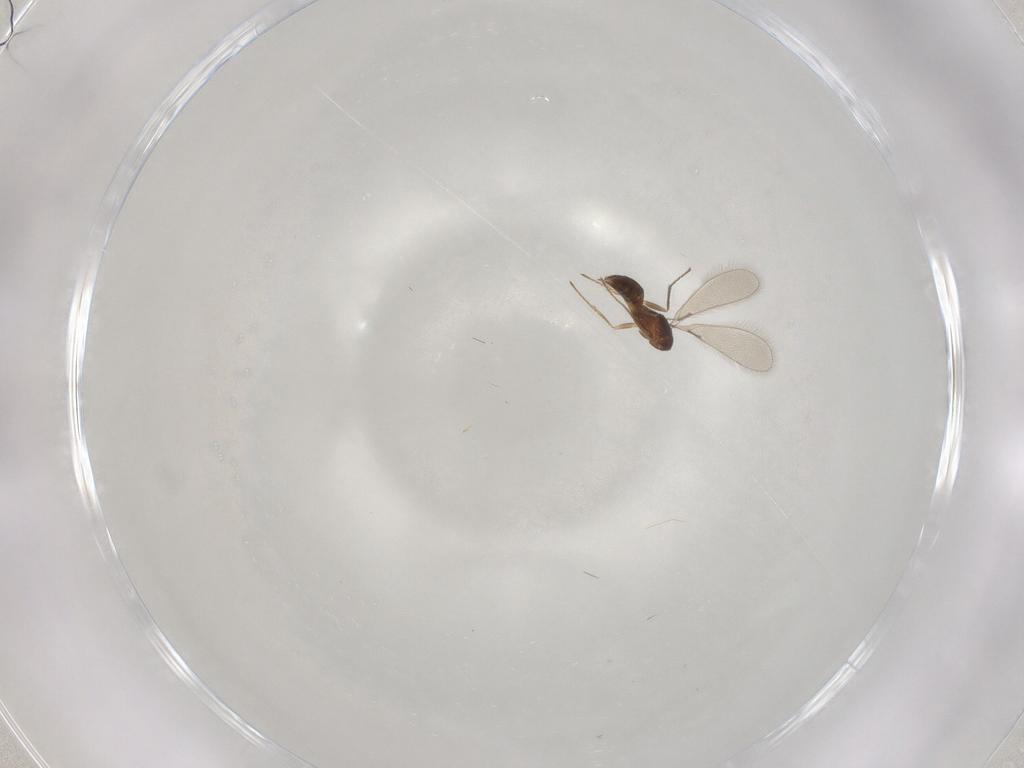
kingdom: Animalia
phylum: Arthropoda
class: Insecta
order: Hymenoptera
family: Mymaridae
